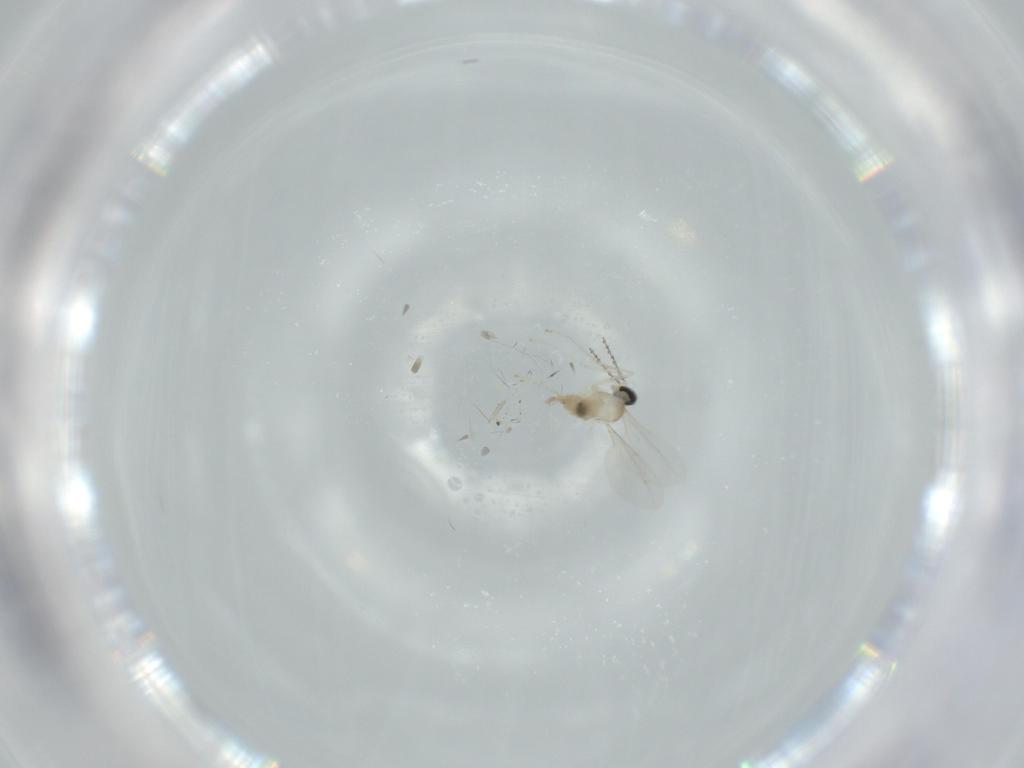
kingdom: Animalia
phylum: Arthropoda
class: Insecta
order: Diptera
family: Cecidomyiidae
